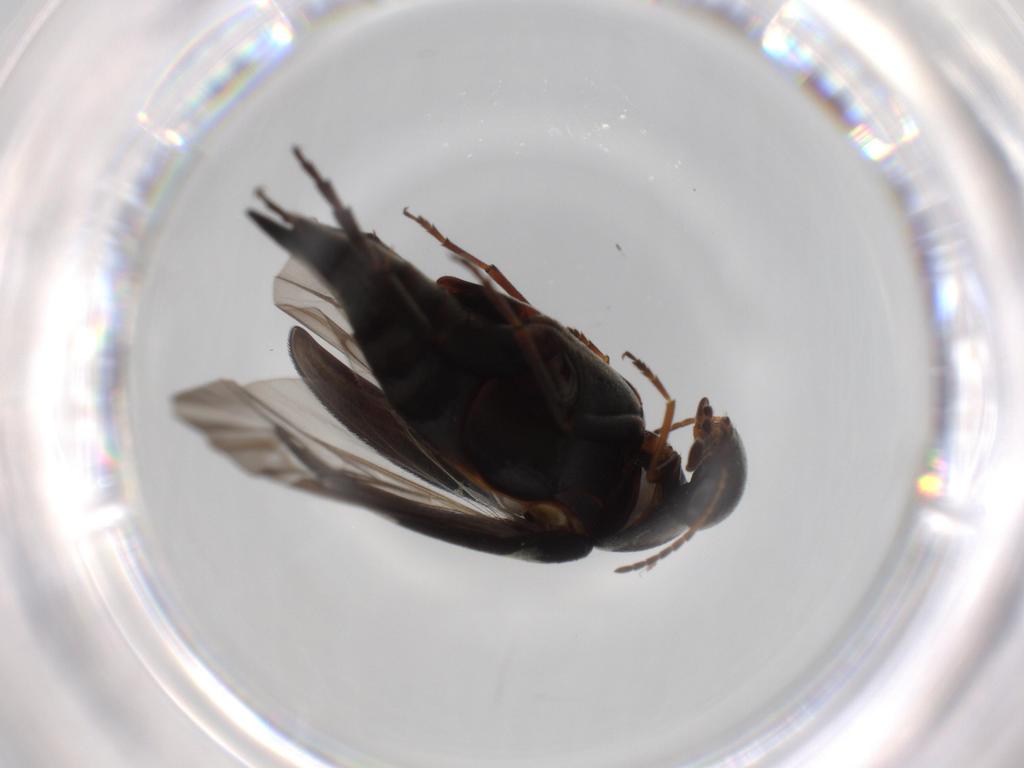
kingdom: Animalia
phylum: Arthropoda
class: Insecta
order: Coleoptera
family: Mordellidae
